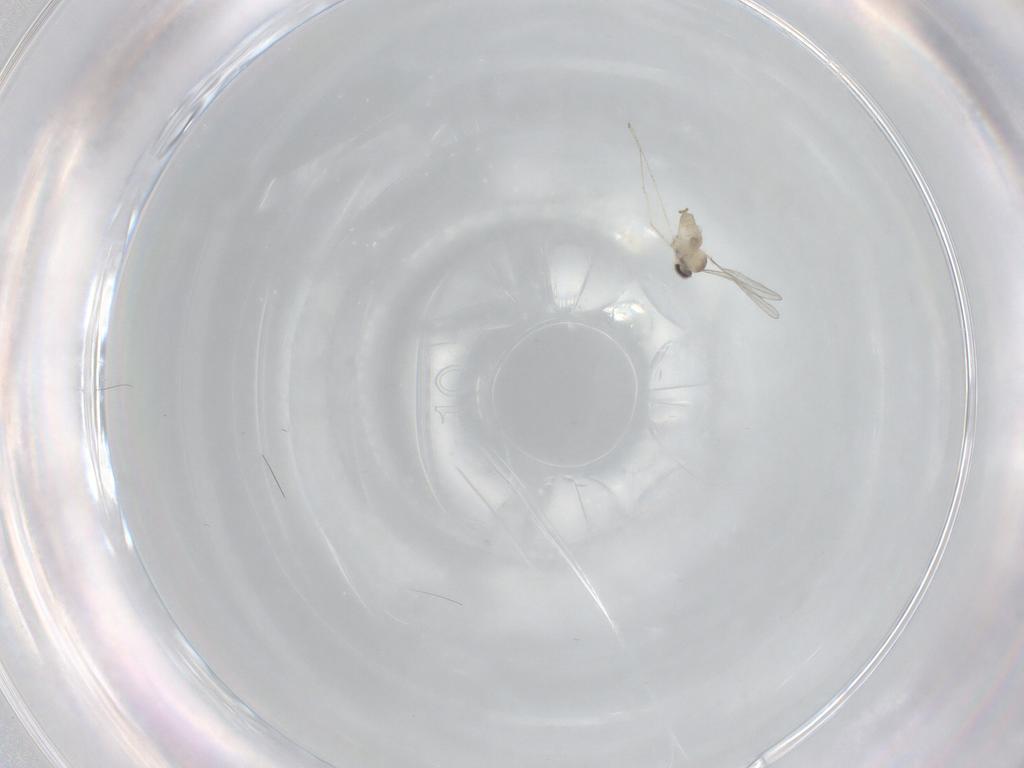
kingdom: Animalia
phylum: Arthropoda
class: Insecta
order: Diptera
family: Cecidomyiidae
